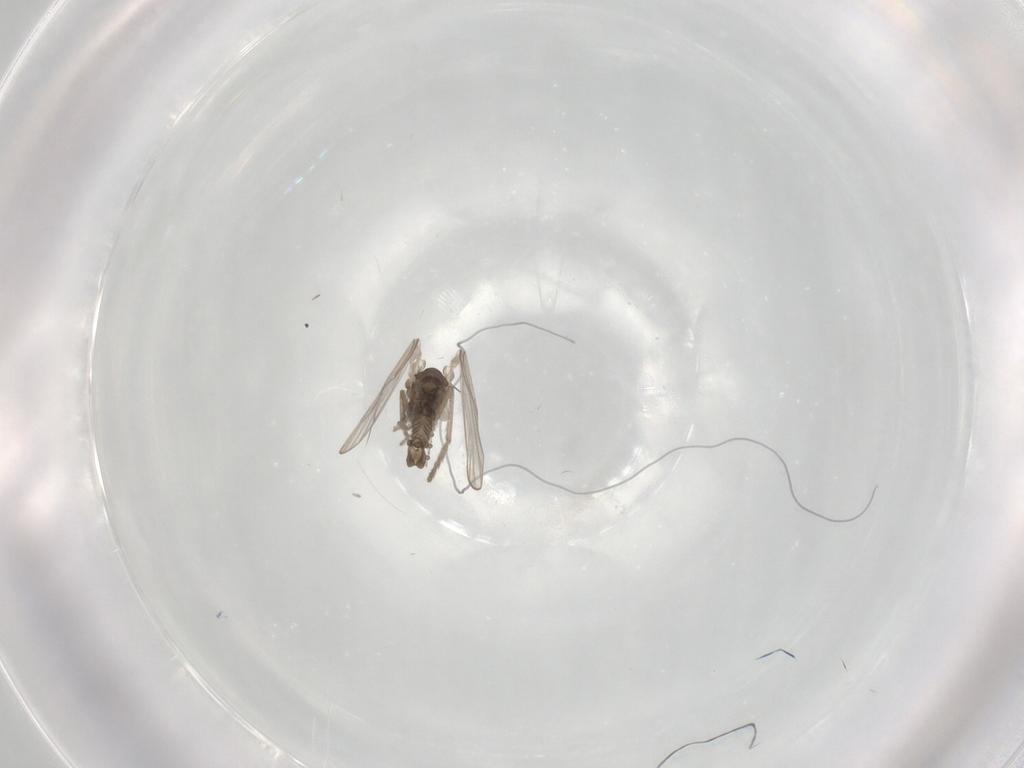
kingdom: Animalia
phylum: Arthropoda
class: Insecta
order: Diptera
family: Psychodidae
